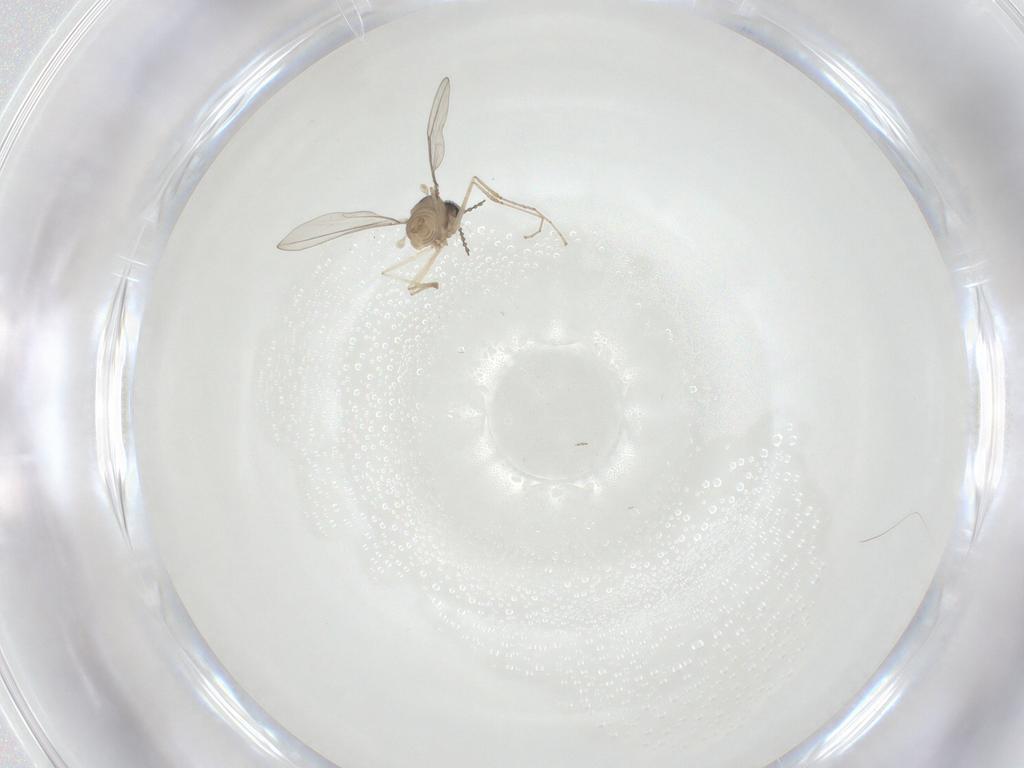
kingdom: Animalia
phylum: Arthropoda
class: Insecta
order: Diptera
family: Cecidomyiidae
